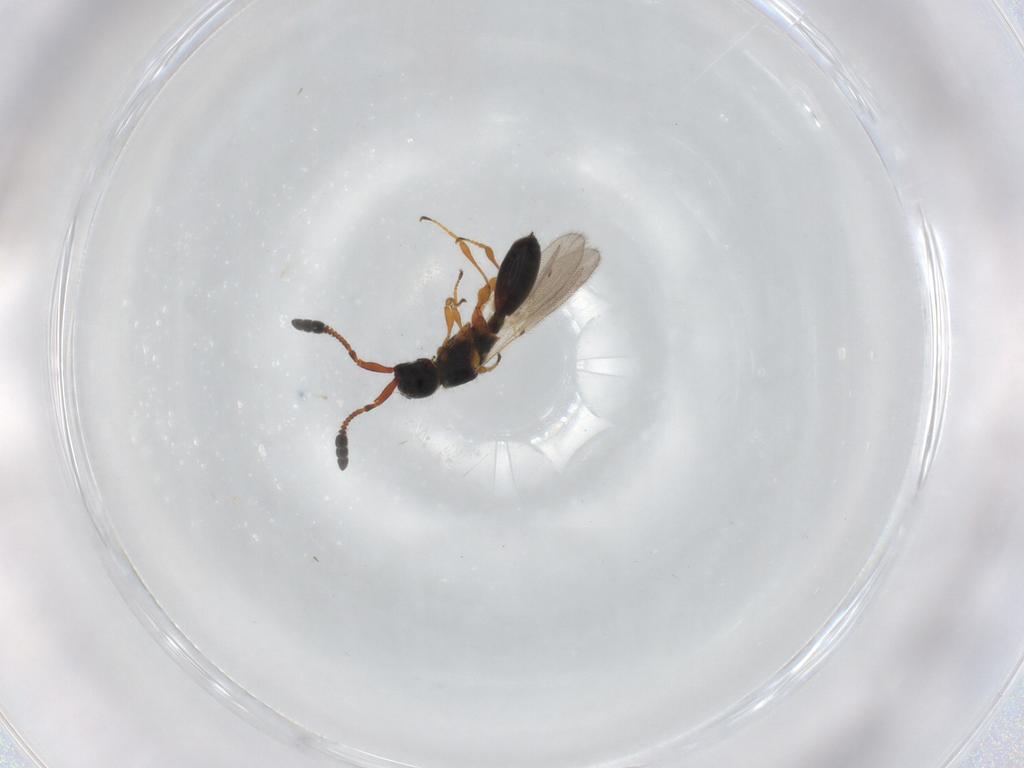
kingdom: Animalia
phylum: Arthropoda
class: Insecta
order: Hymenoptera
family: Diapriidae
